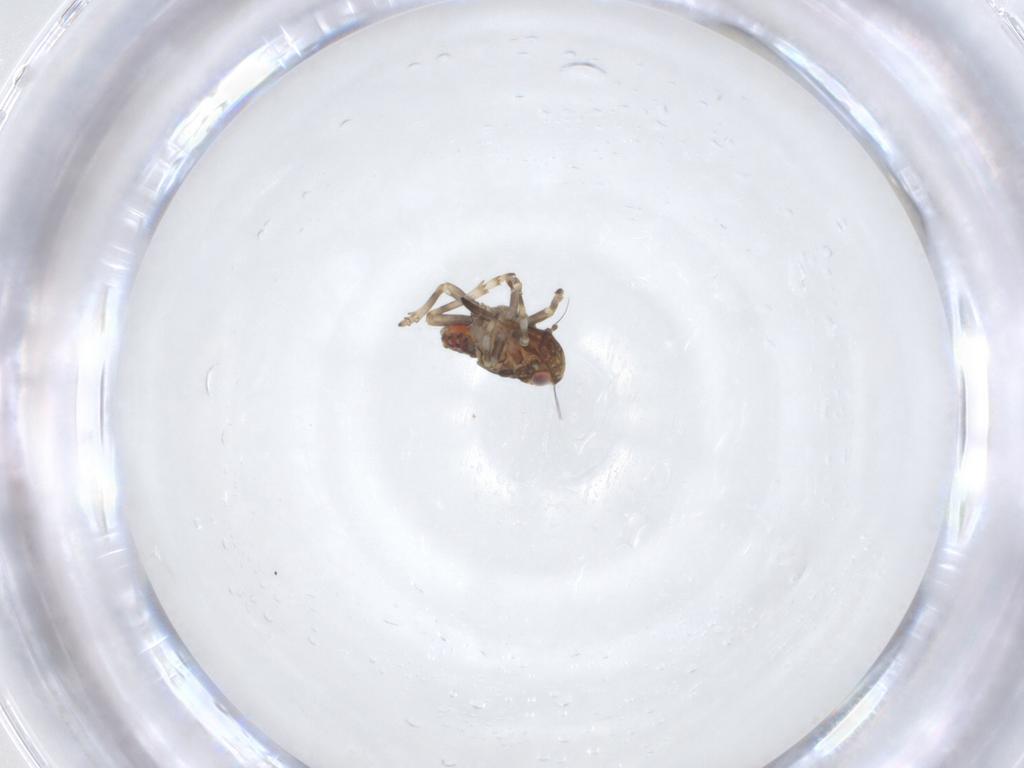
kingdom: Animalia
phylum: Arthropoda
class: Insecta
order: Hemiptera
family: Tropiduchidae
